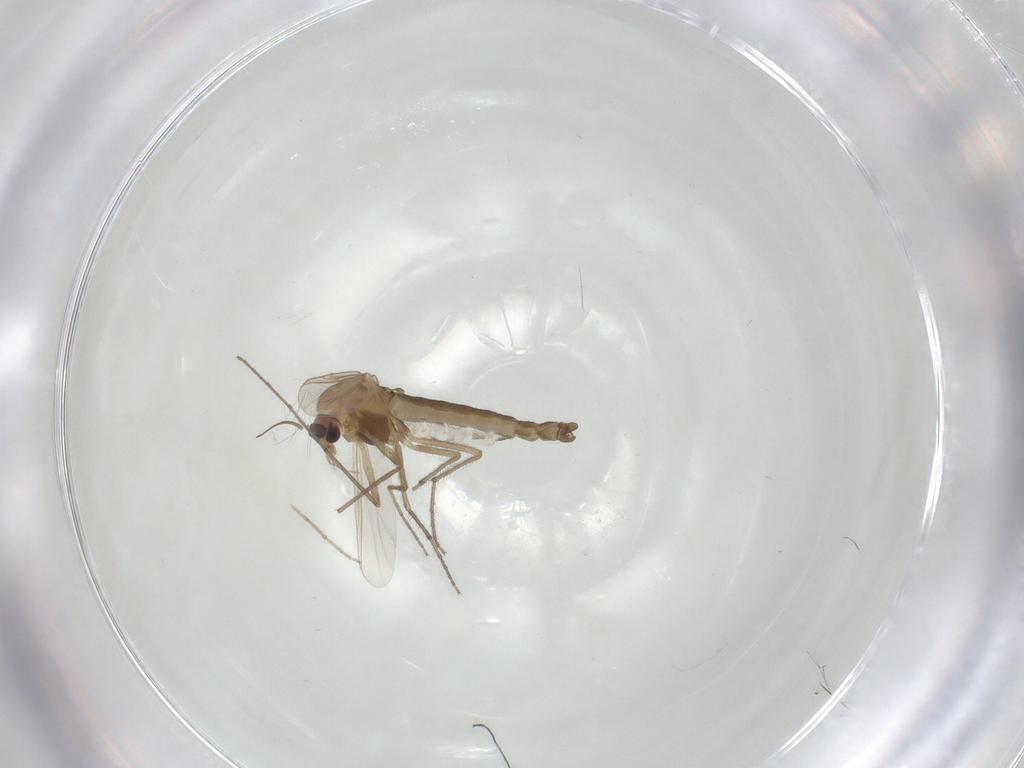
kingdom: Animalia
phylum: Arthropoda
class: Insecta
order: Diptera
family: Chironomidae
